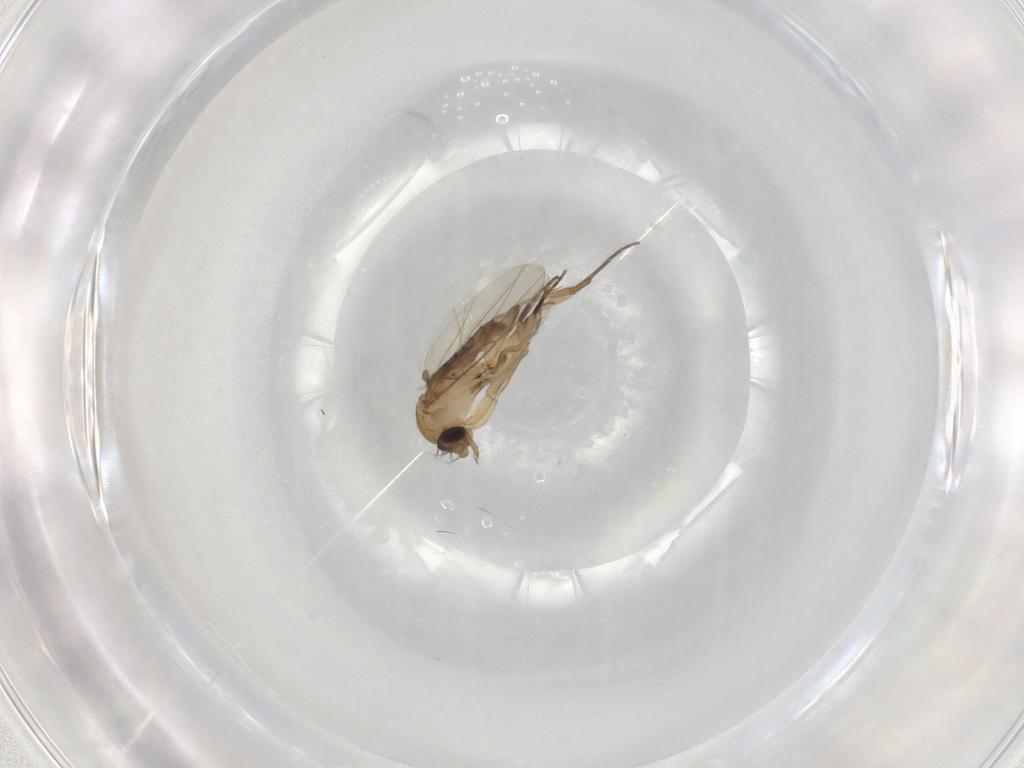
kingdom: Animalia
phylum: Arthropoda
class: Insecta
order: Diptera
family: Phoridae
